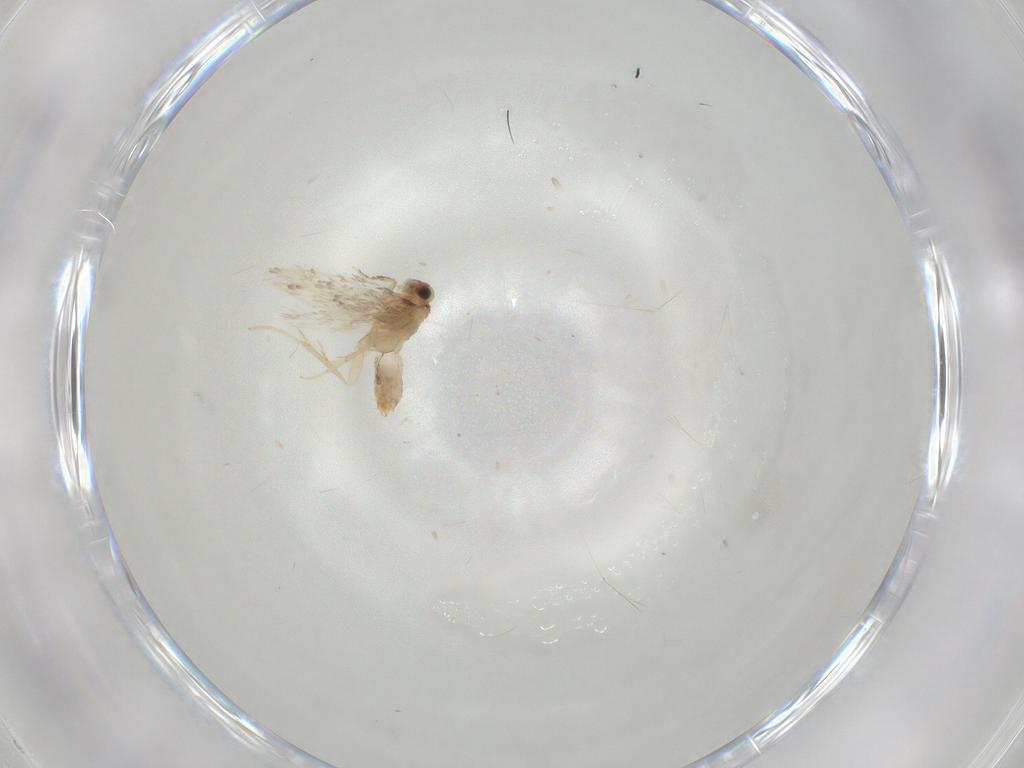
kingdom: Animalia
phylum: Arthropoda
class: Insecta
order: Lepidoptera
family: Nepticulidae
